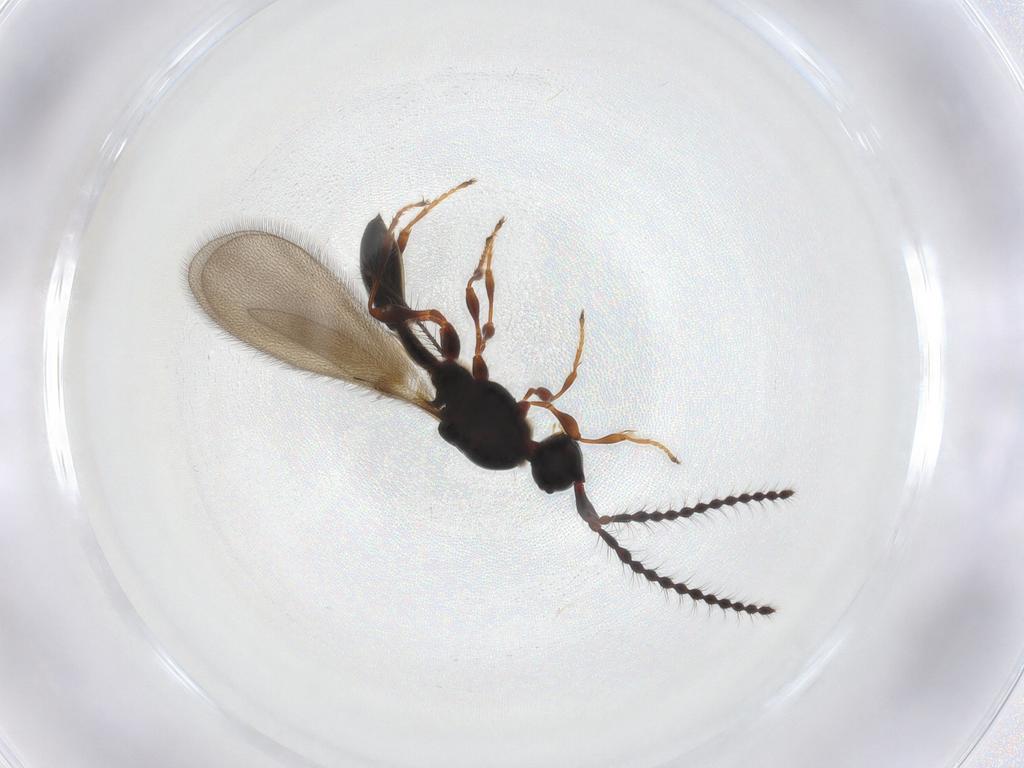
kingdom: Animalia
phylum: Arthropoda
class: Insecta
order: Hymenoptera
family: Diapriidae
